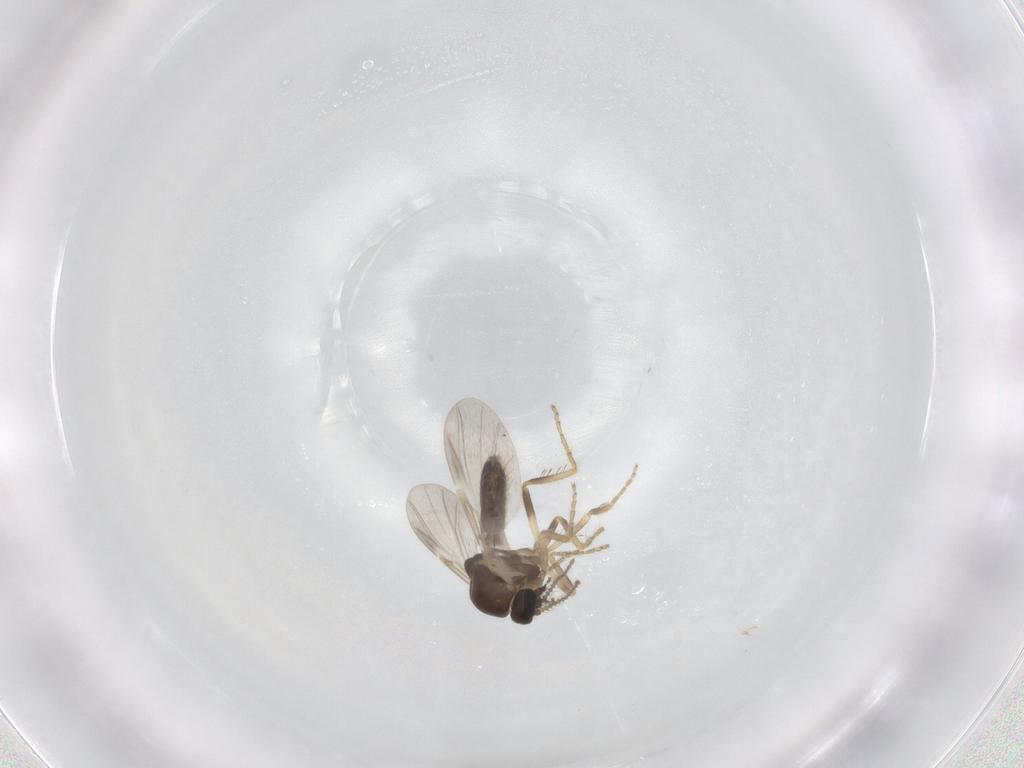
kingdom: Animalia
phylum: Arthropoda
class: Insecta
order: Diptera
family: Ceratopogonidae
